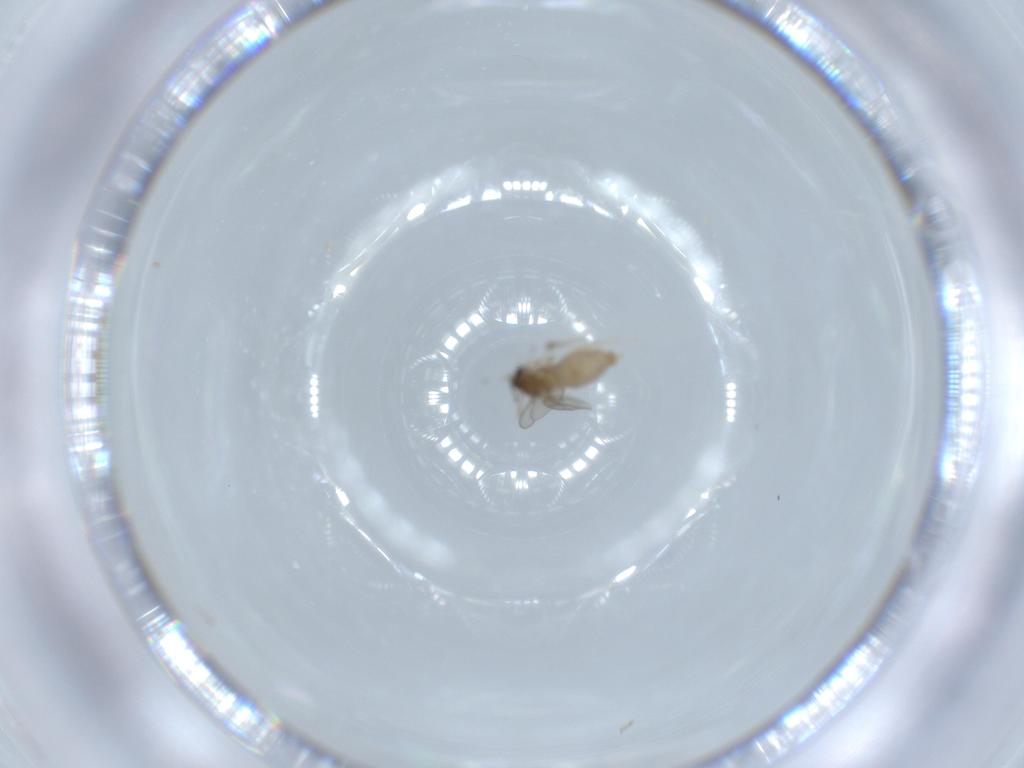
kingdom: Animalia
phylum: Arthropoda
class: Insecta
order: Diptera
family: Cecidomyiidae
